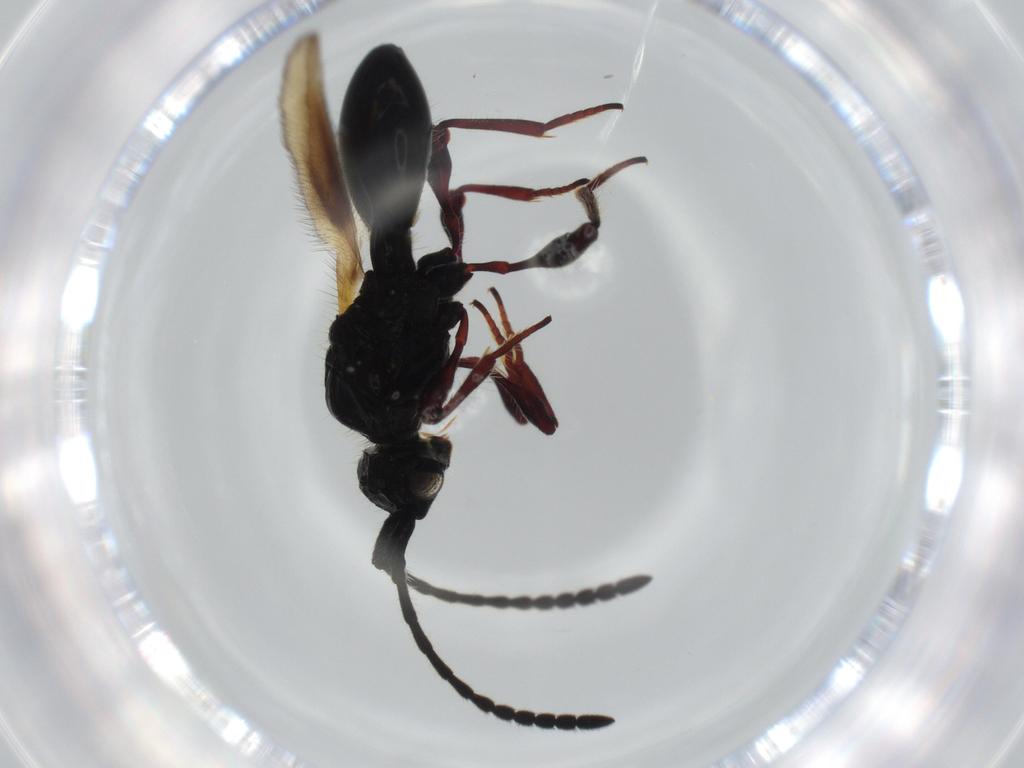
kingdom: Animalia
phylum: Arthropoda
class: Insecta
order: Hymenoptera
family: Diapriidae
